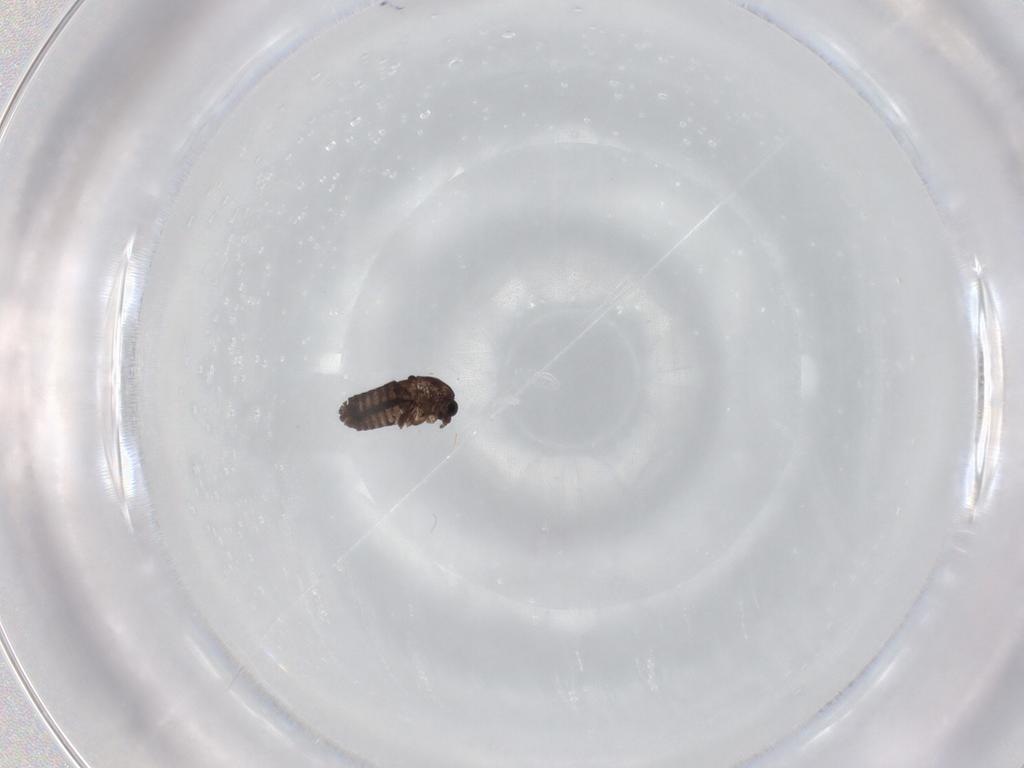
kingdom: Animalia
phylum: Arthropoda
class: Insecta
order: Diptera
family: Chironomidae
